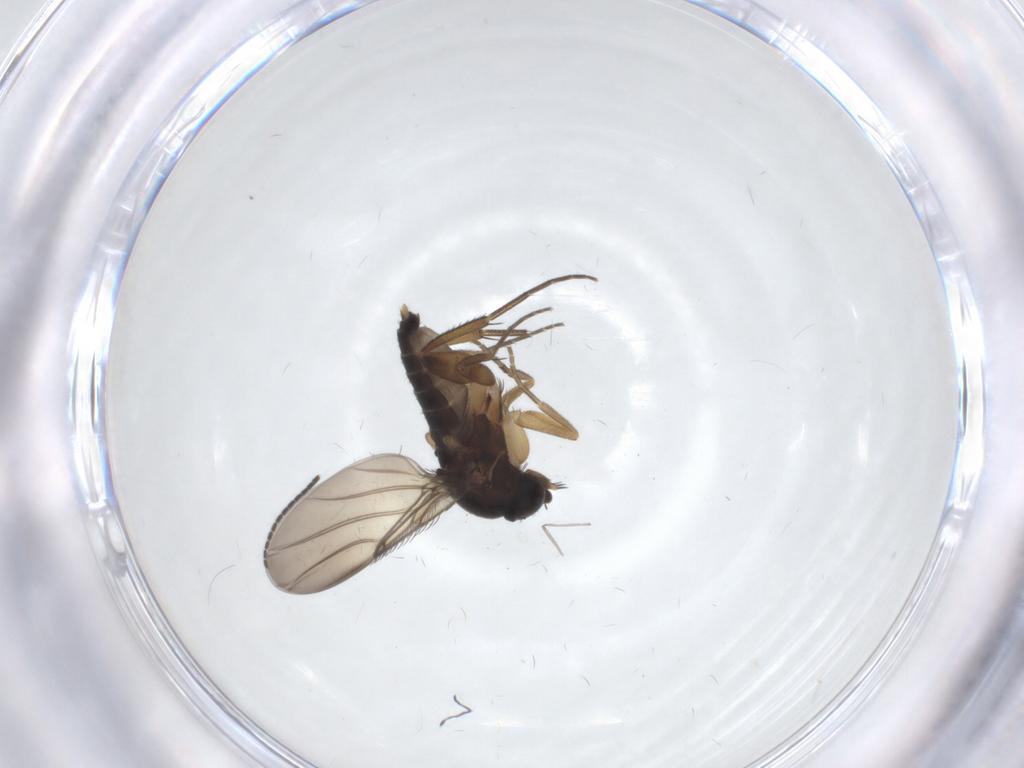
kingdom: Animalia
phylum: Arthropoda
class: Insecta
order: Diptera
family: Phoridae
